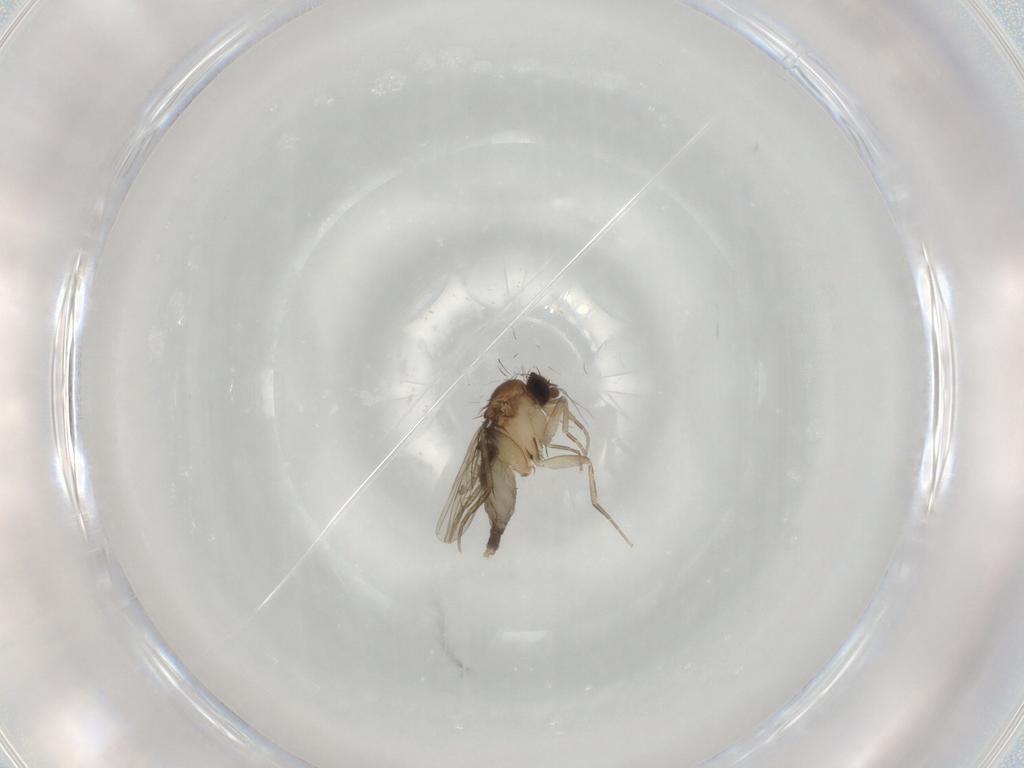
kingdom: Animalia
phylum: Arthropoda
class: Insecta
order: Diptera
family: Phoridae
